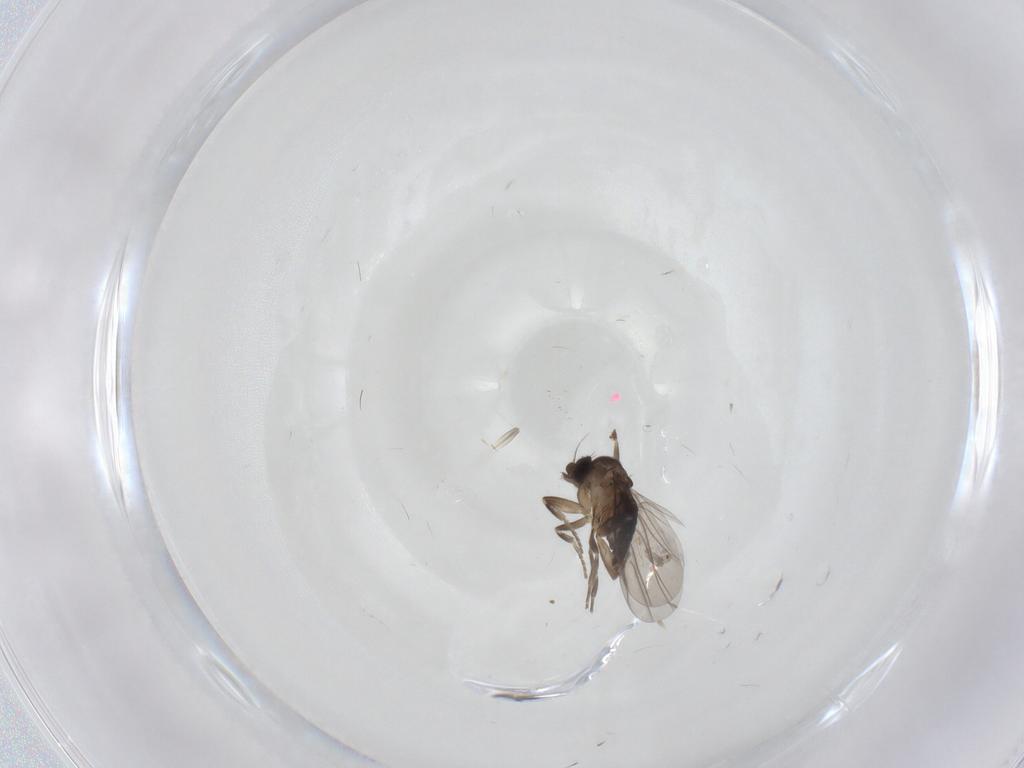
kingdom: Animalia
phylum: Arthropoda
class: Insecta
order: Diptera
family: Phoridae
